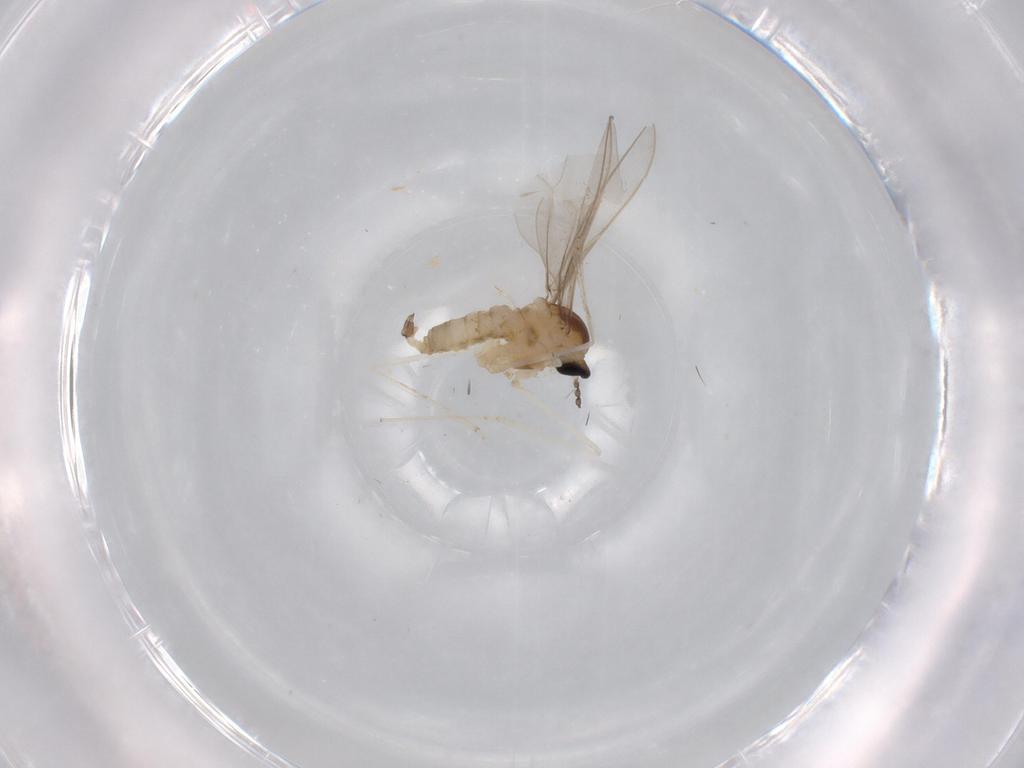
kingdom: Animalia
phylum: Arthropoda
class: Insecta
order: Diptera
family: Cecidomyiidae
